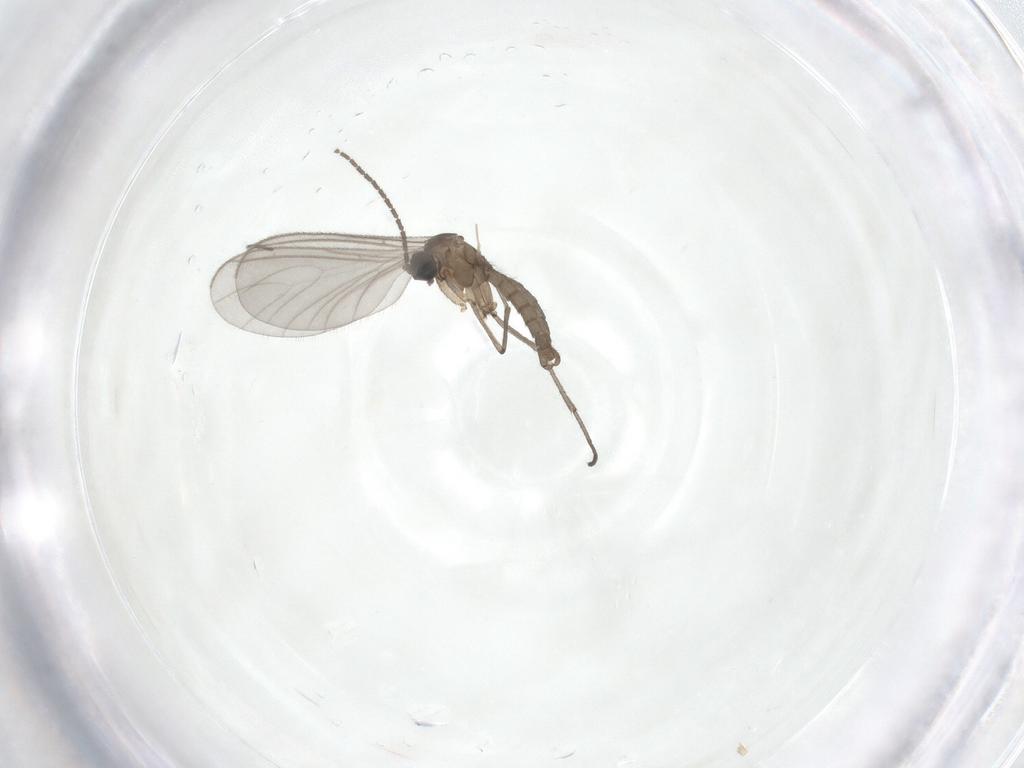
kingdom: Animalia
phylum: Arthropoda
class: Insecta
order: Diptera
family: Sciaridae
